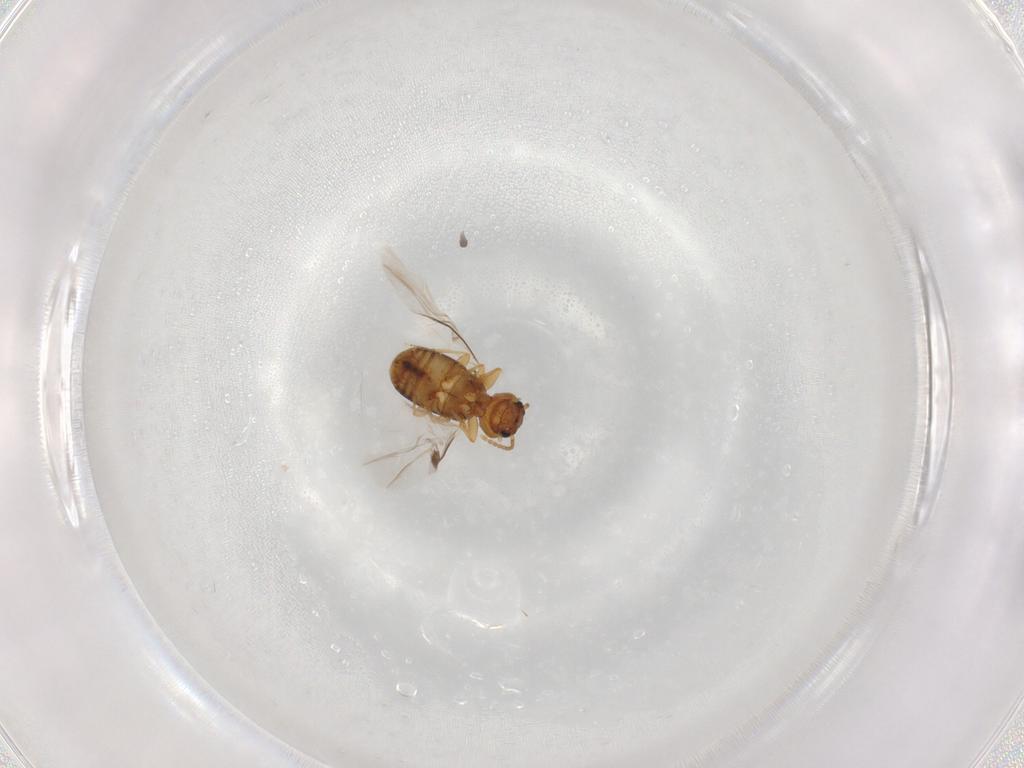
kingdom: Animalia
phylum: Arthropoda
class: Insecta
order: Coleoptera
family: Carabidae
